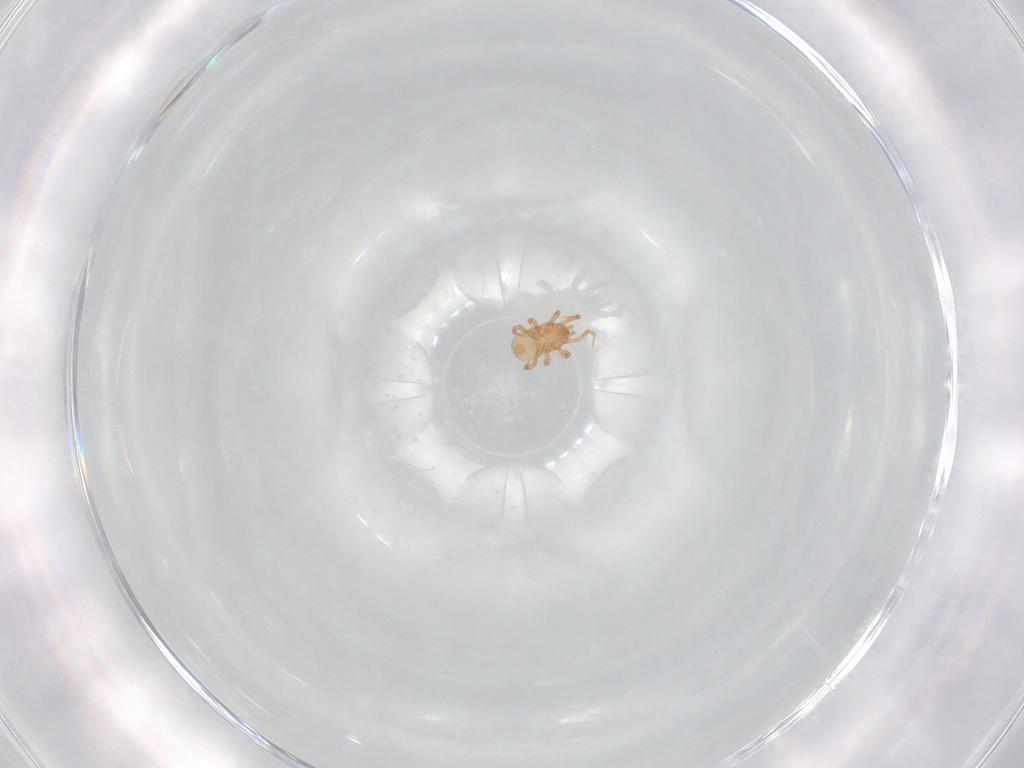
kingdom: Animalia
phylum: Arthropoda
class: Arachnida
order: Mesostigmata
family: Ascidae
